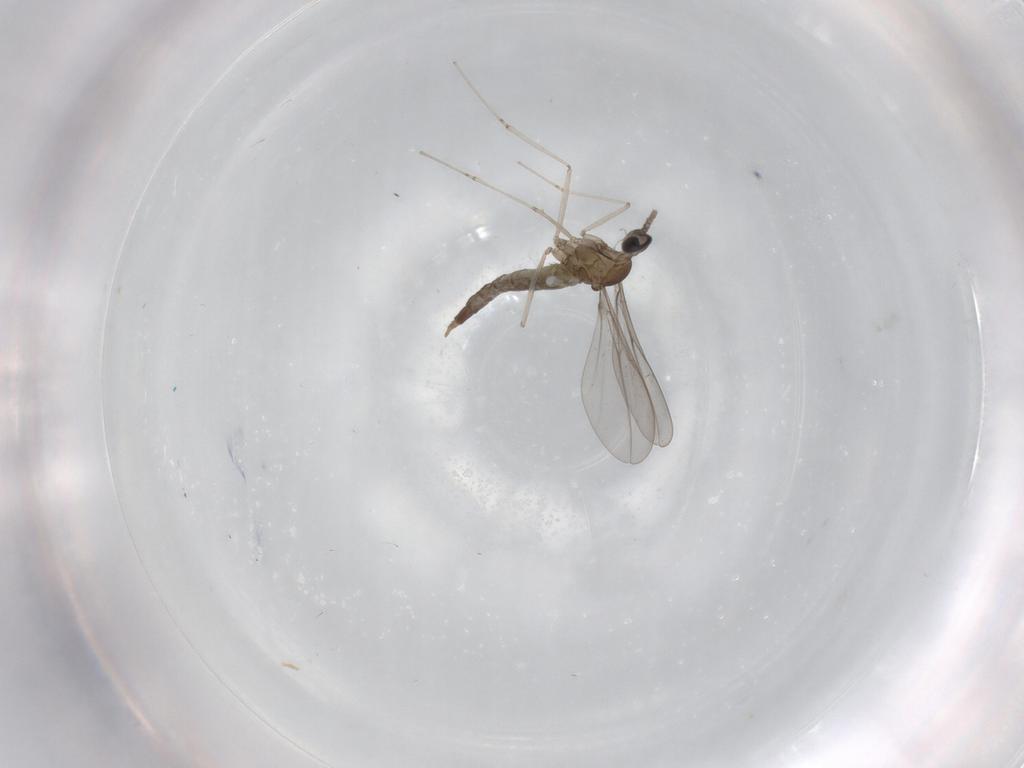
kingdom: Animalia
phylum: Arthropoda
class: Insecta
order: Diptera
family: Cecidomyiidae
